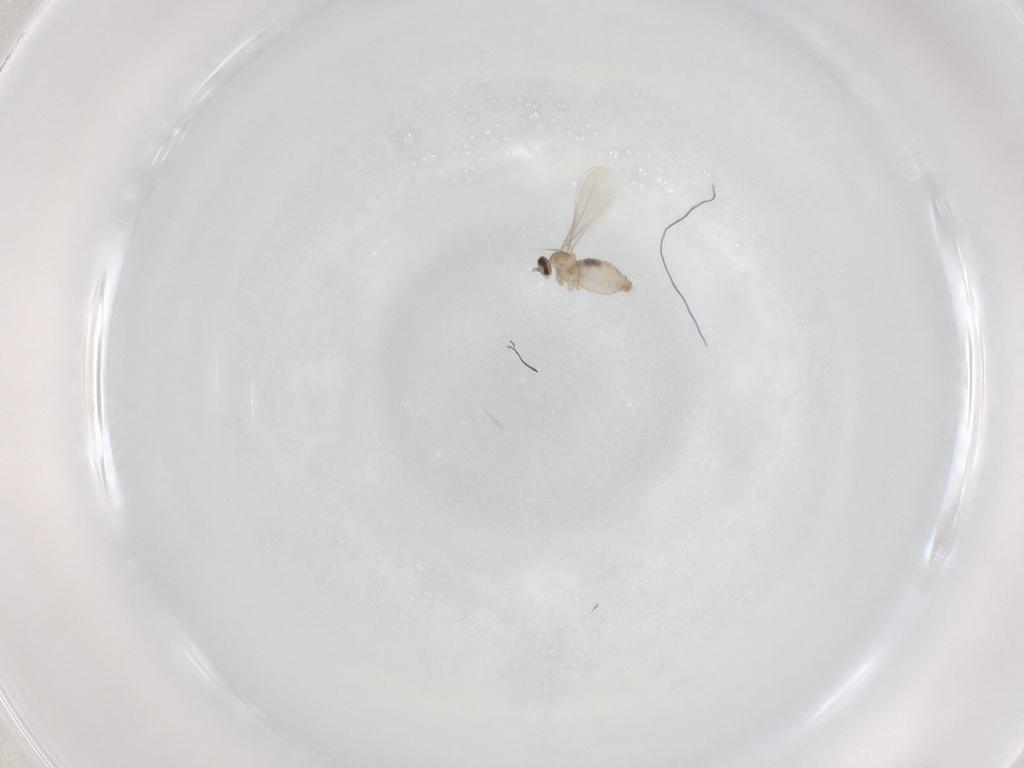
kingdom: Animalia
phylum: Arthropoda
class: Insecta
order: Diptera
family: Cecidomyiidae
